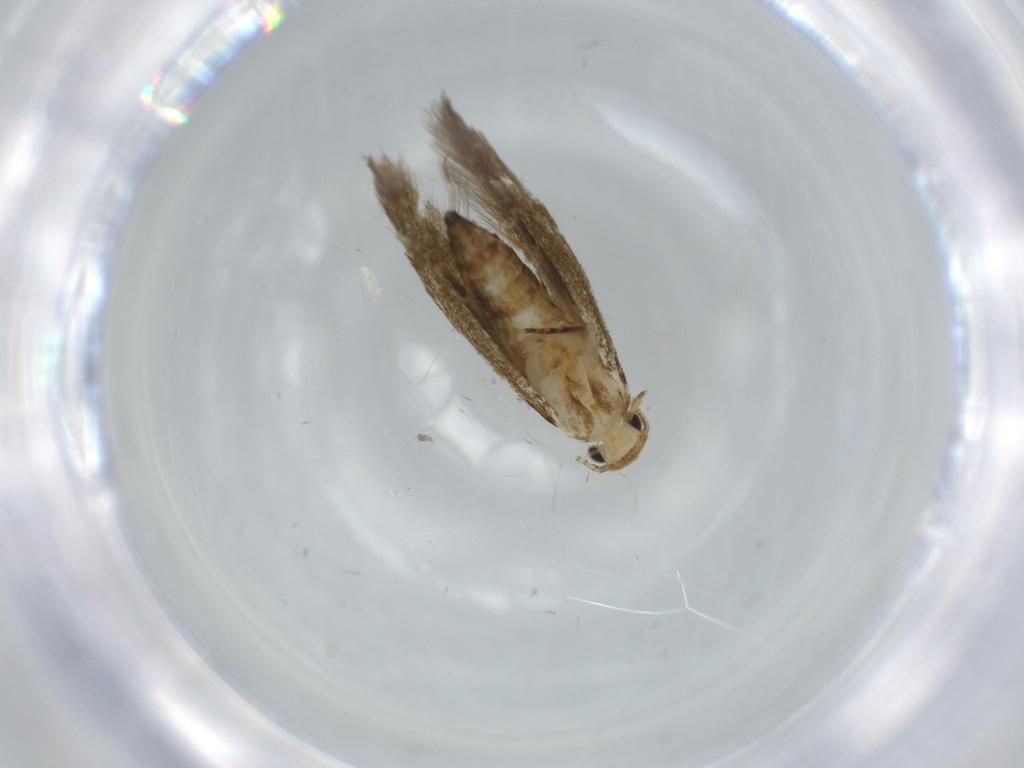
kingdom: Animalia
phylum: Arthropoda
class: Insecta
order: Lepidoptera
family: Tineidae
